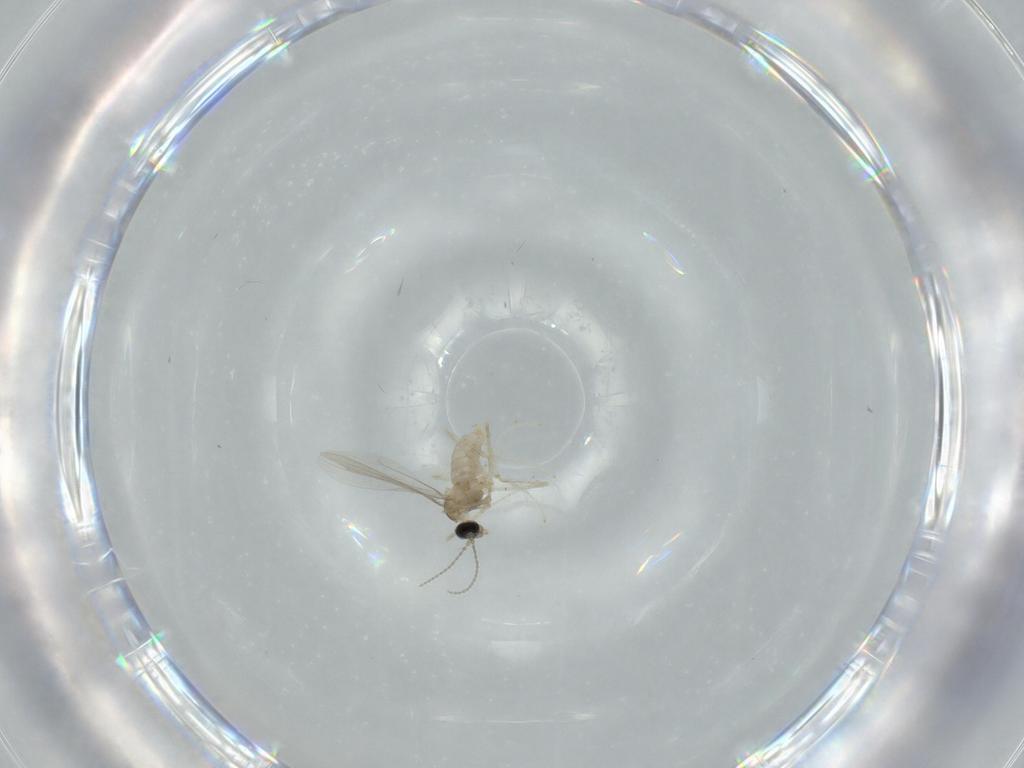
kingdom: Animalia
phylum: Arthropoda
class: Insecta
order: Diptera
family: Cecidomyiidae
